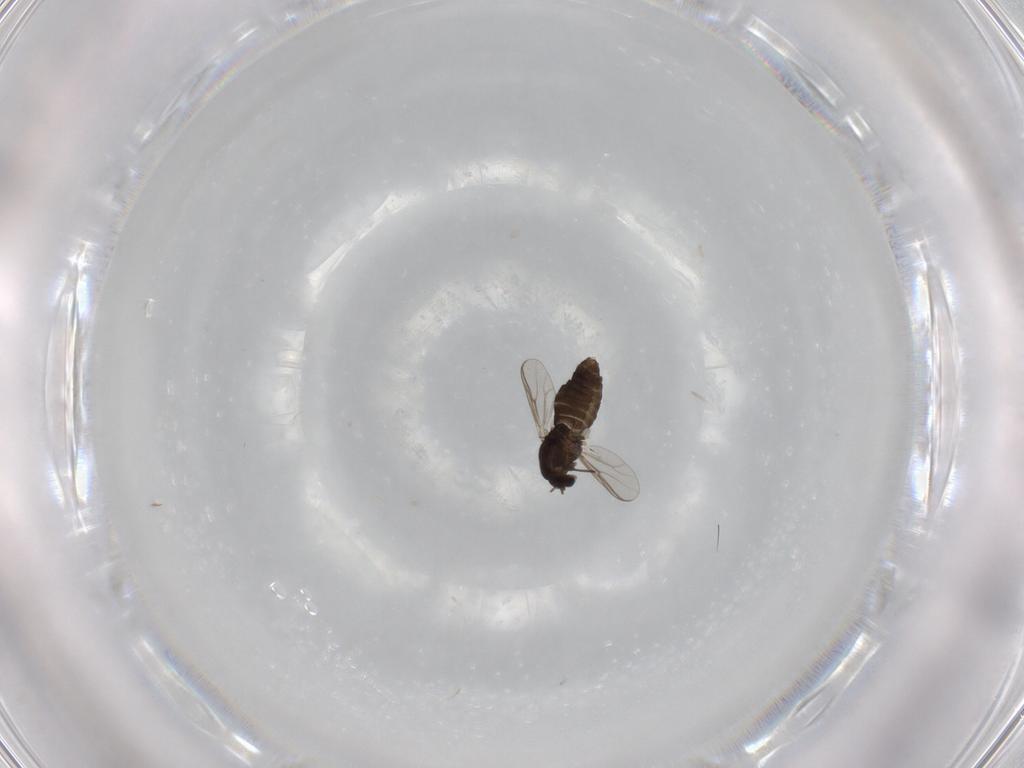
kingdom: Animalia
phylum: Arthropoda
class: Insecta
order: Diptera
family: Chironomidae
